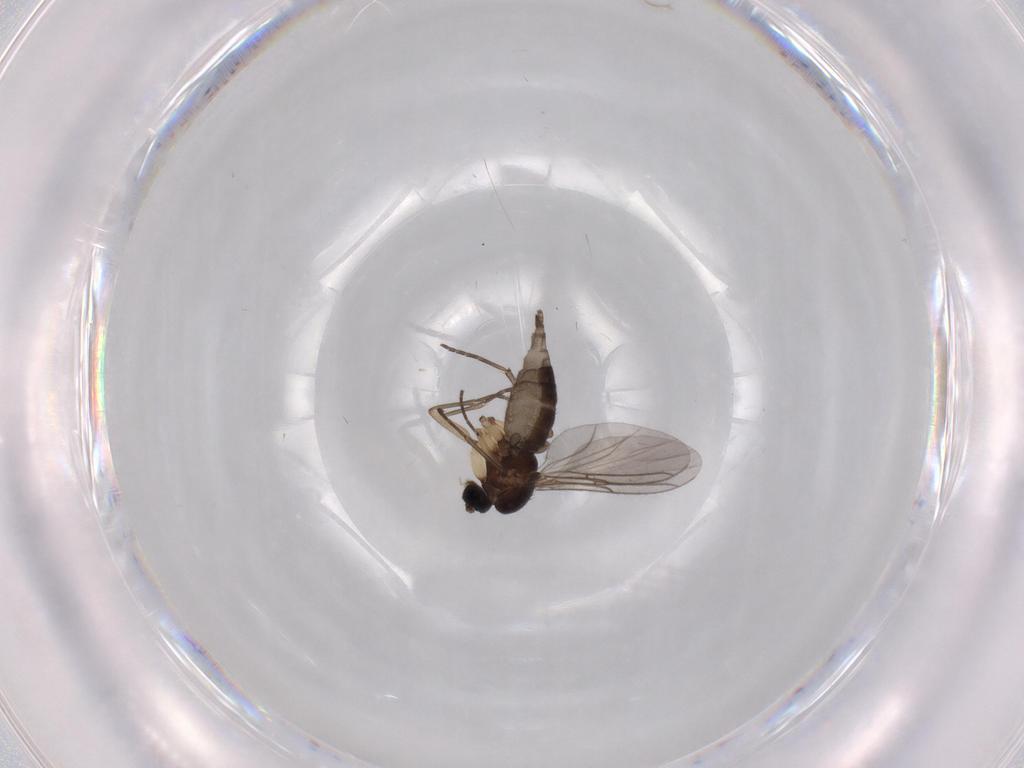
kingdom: Animalia
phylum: Arthropoda
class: Insecta
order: Diptera
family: Sciaridae
